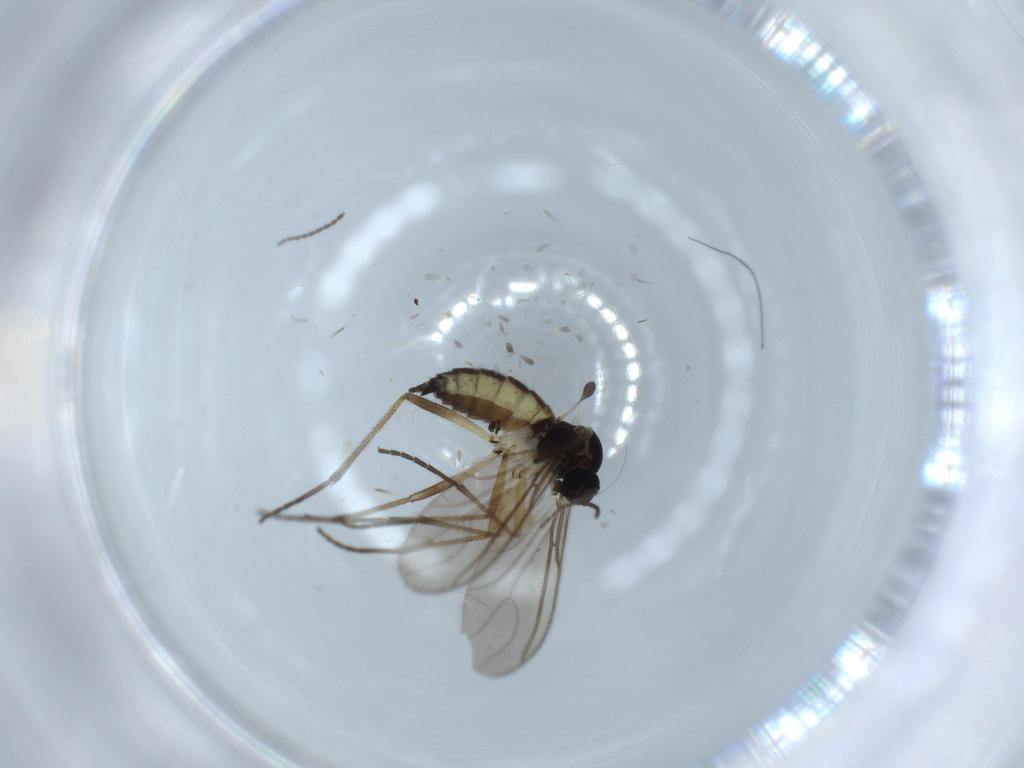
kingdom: Animalia
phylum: Arthropoda
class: Insecta
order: Diptera
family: Sciaridae
